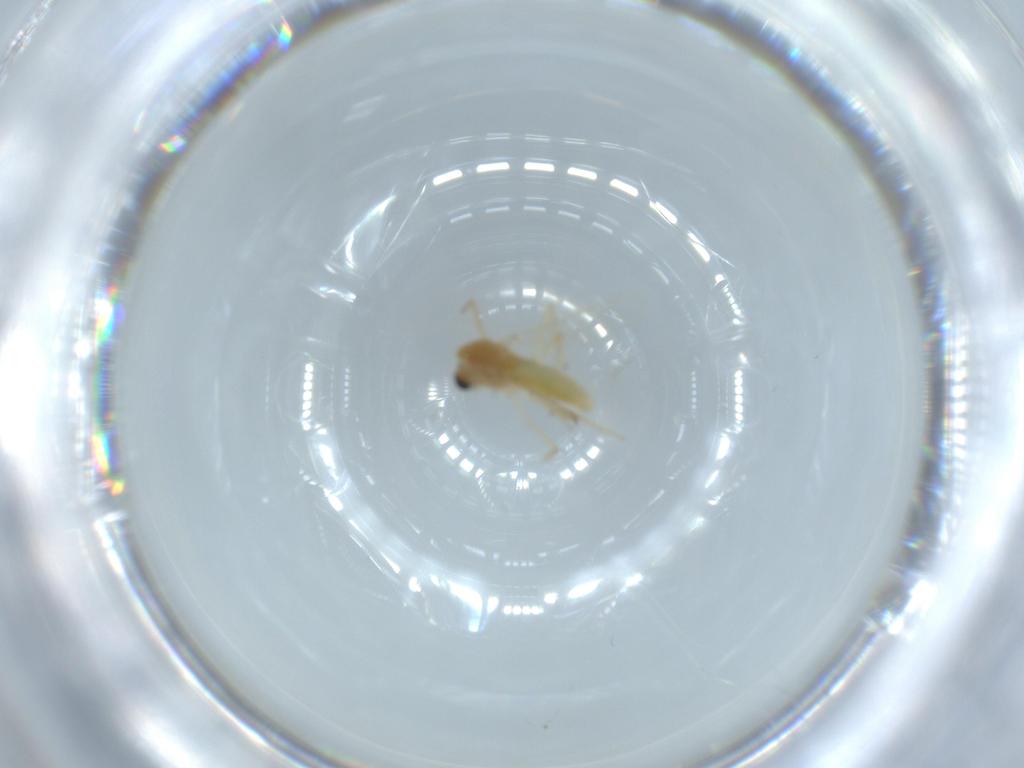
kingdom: Animalia
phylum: Arthropoda
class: Insecta
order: Diptera
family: Chironomidae
